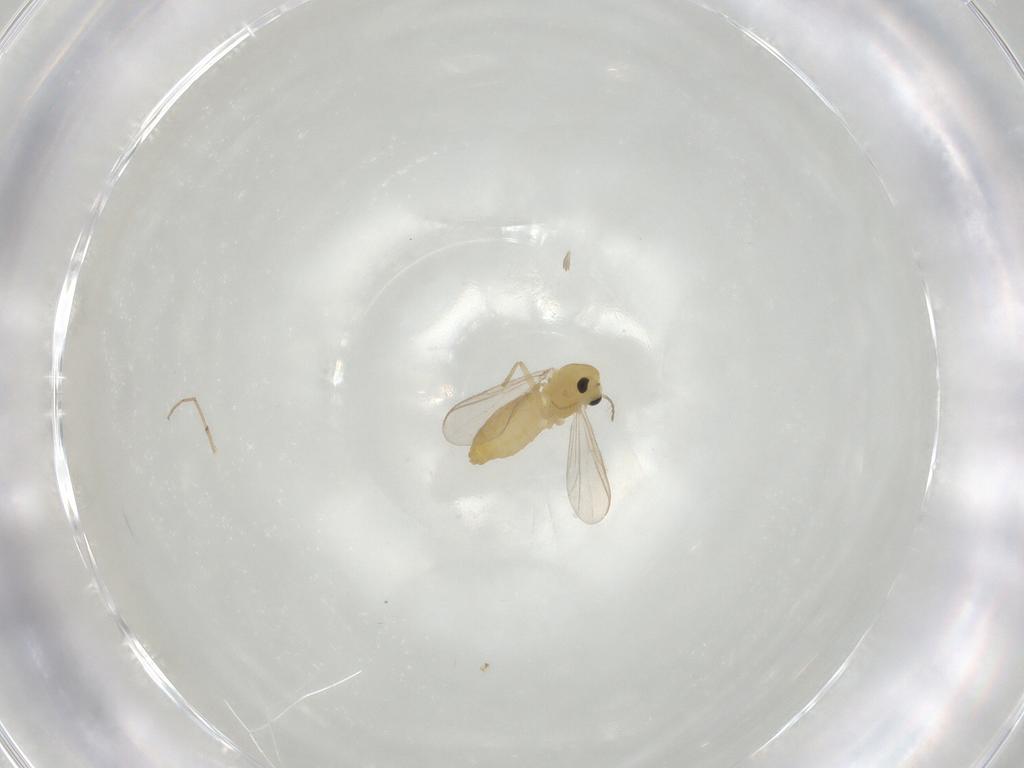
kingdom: Animalia
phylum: Arthropoda
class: Insecta
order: Diptera
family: Chironomidae
